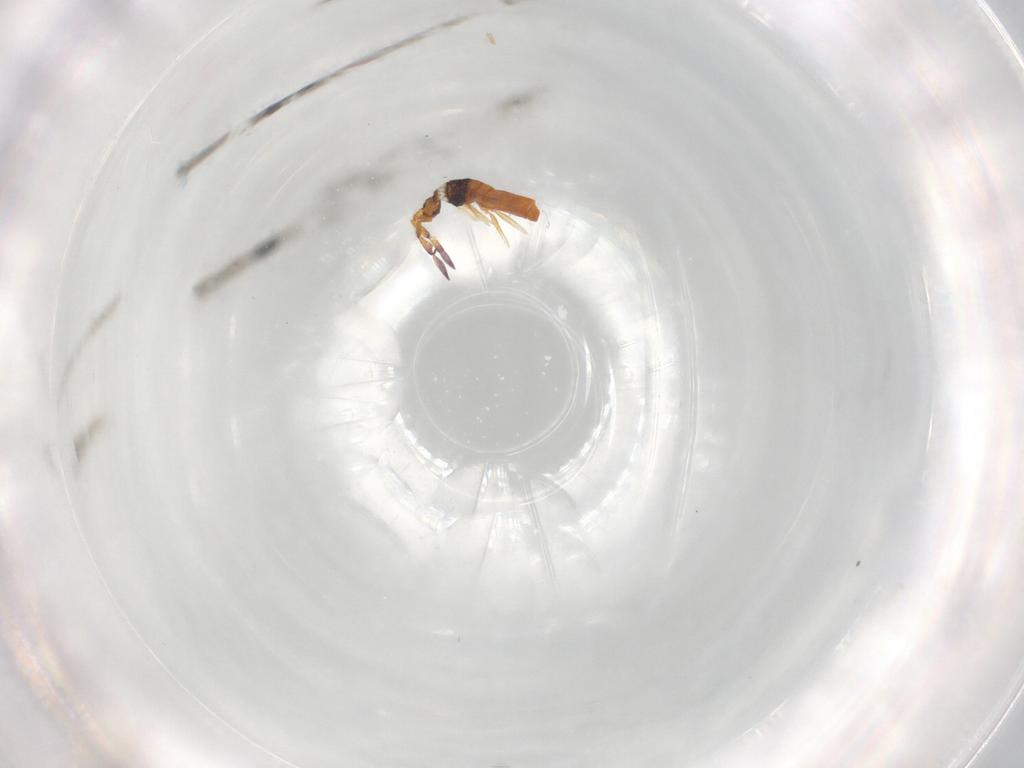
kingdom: Animalia
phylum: Arthropoda
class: Collembola
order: Entomobryomorpha
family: Entomobryidae
